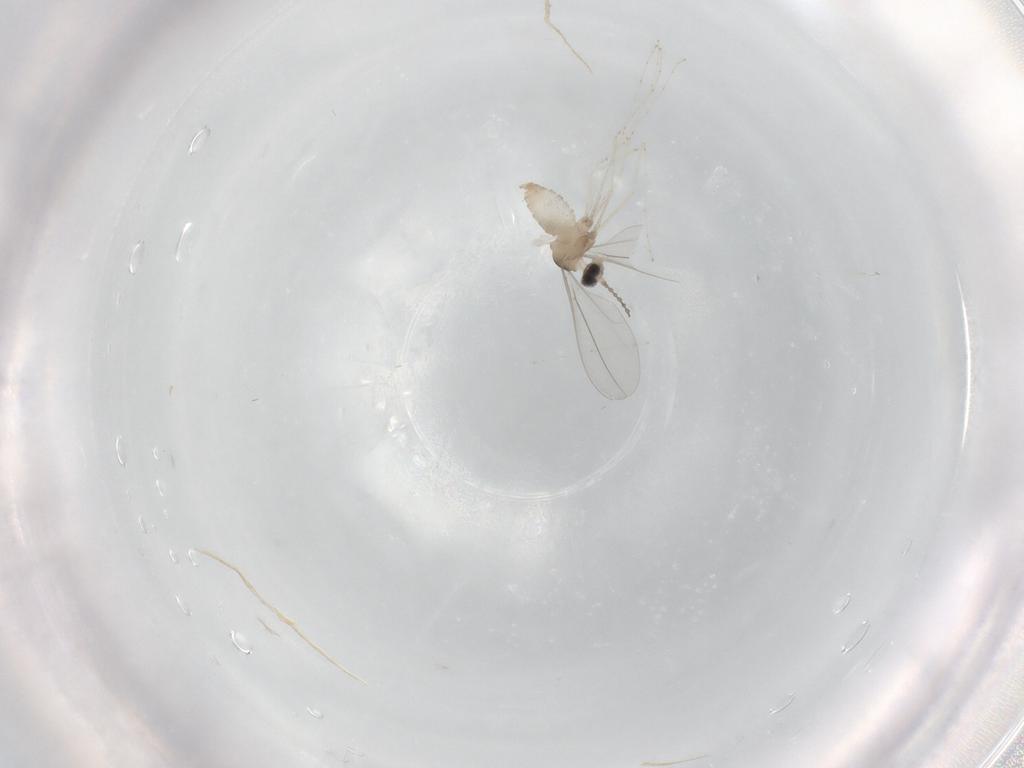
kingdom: Animalia
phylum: Arthropoda
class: Insecta
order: Diptera
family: Cecidomyiidae
